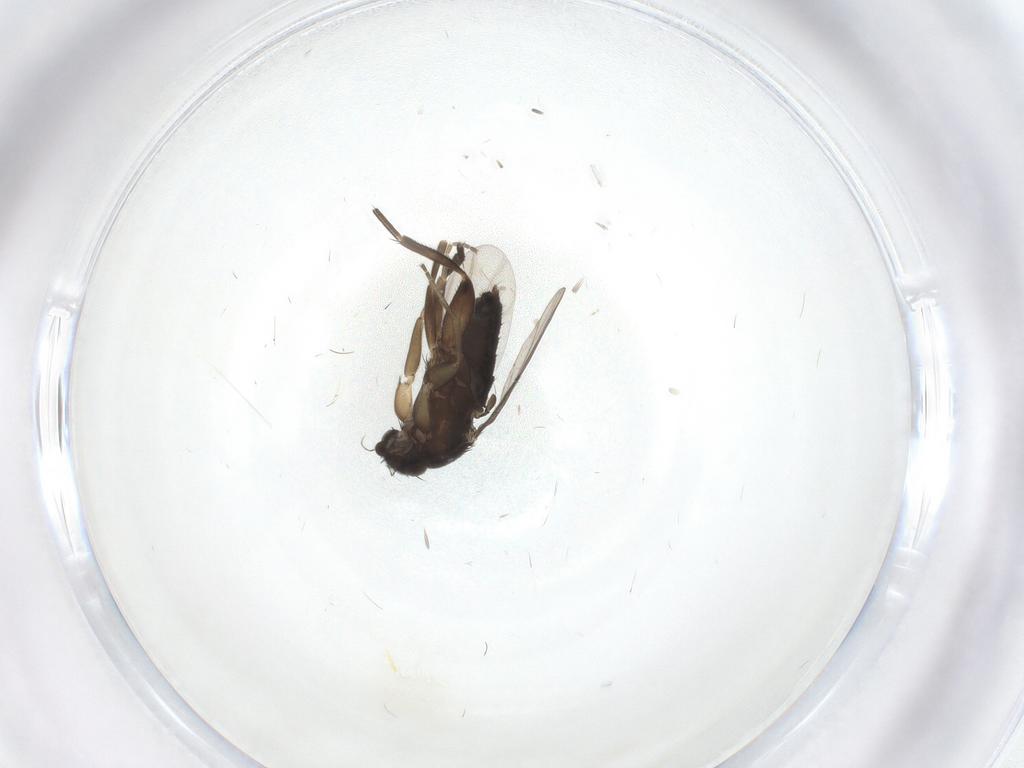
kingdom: Animalia
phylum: Arthropoda
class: Insecta
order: Diptera
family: Phoridae
